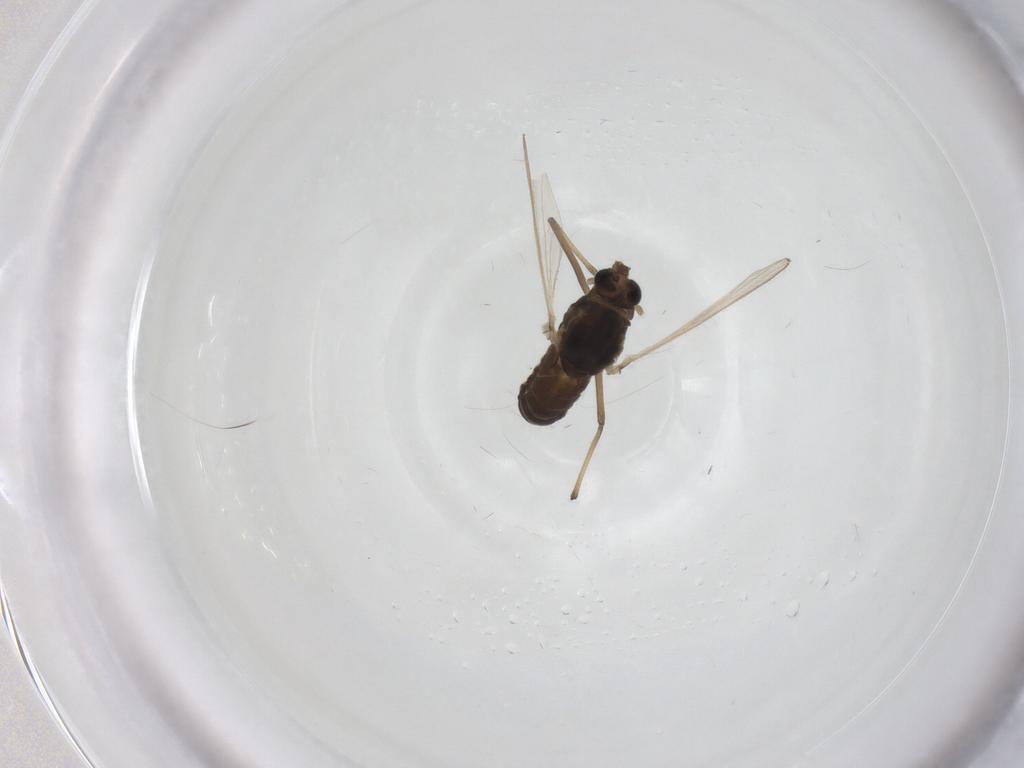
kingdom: Animalia
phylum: Arthropoda
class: Insecta
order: Diptera
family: Chironomidae
